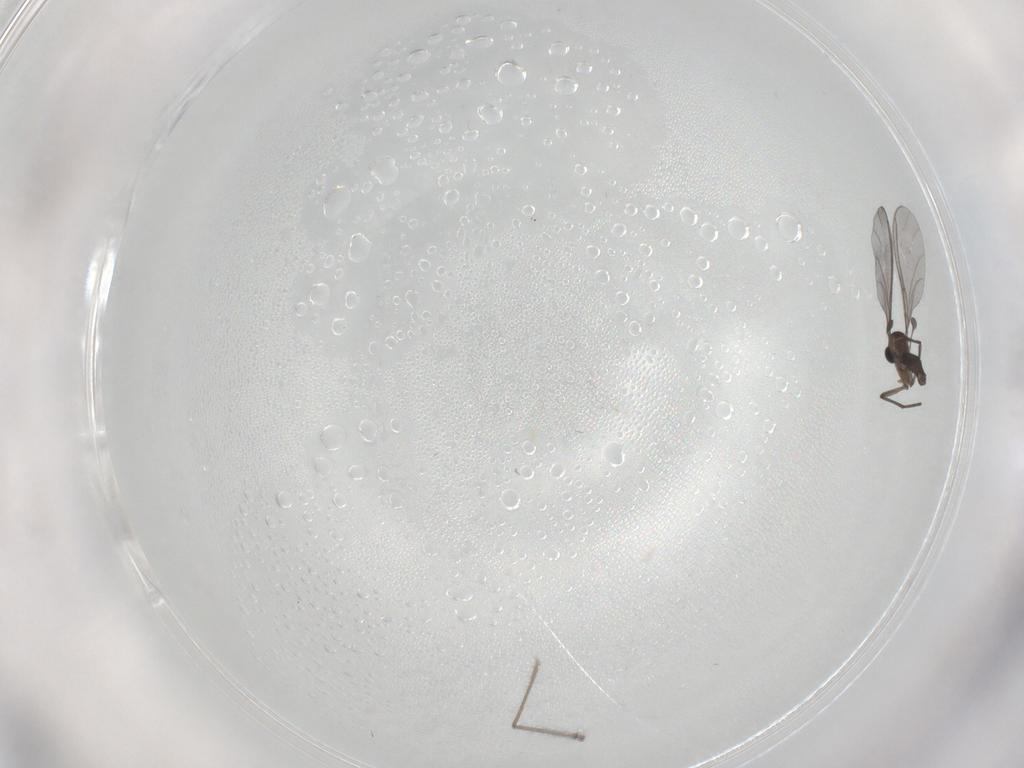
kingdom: Animalia
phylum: Arthropoda
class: Insecta
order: Diptera
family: Sciaridae
